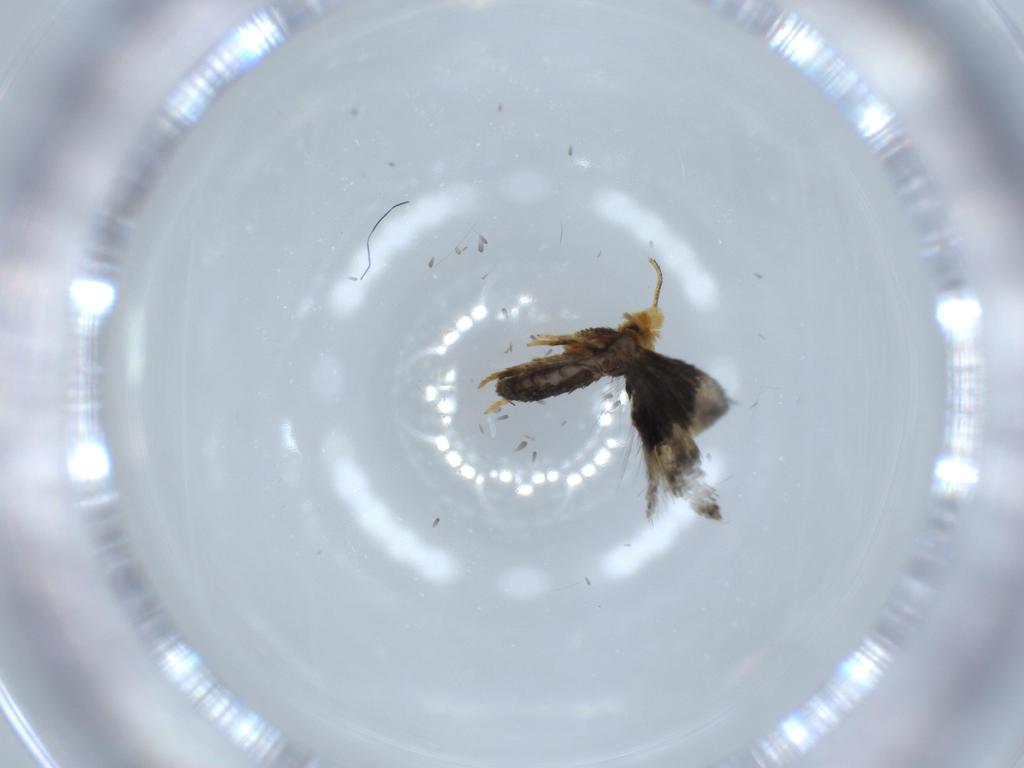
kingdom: Animalia
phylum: Arthropoda
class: Insecta
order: Lepidoptera
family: Nepticulidae
